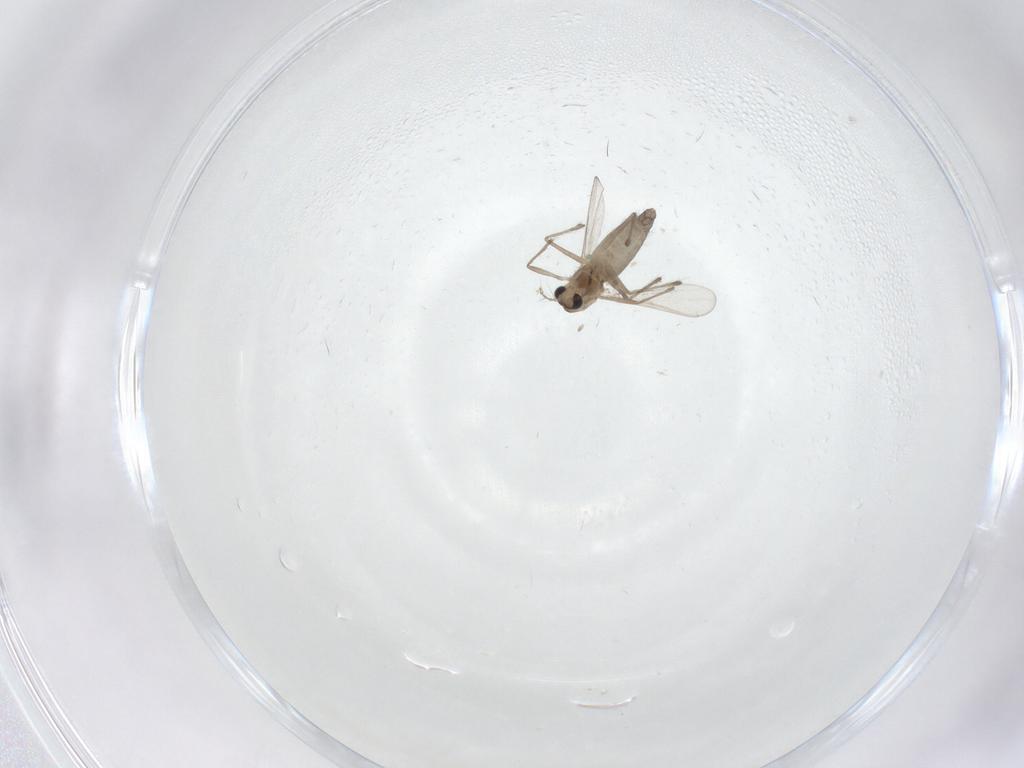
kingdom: Animalia
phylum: Arthropoda
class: Insecta
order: Diptera
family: Chironomidae
